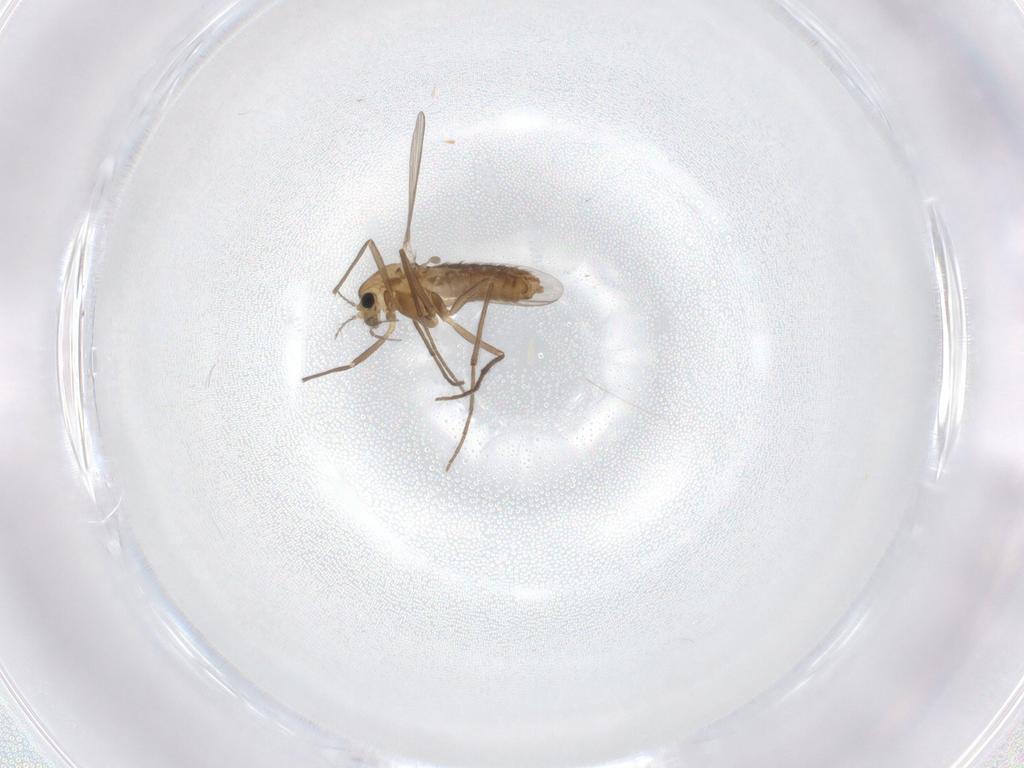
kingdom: Animalia
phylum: Arthropoda
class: Insecta
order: Diptera
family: Chironomidae
